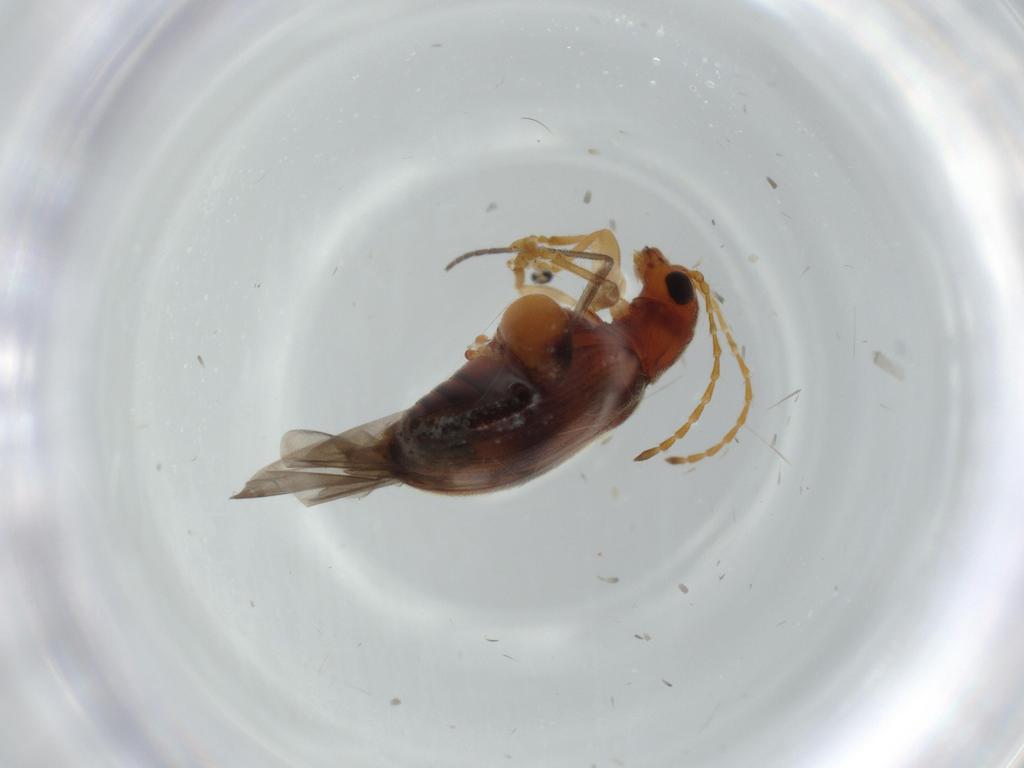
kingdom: Animalia
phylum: Arthropoda
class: Insecta
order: Coleoptera
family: Chrysomelidae
